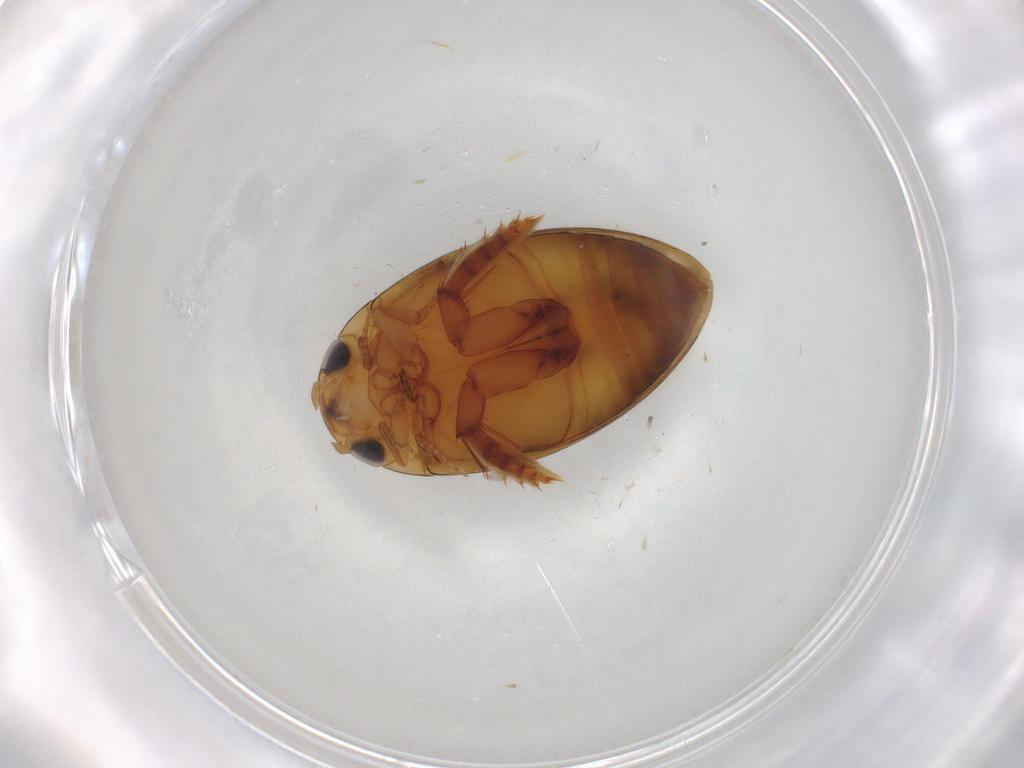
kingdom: Animalia
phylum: Arthropoda
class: Insecta
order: Coleoptera
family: Dytiscidae
